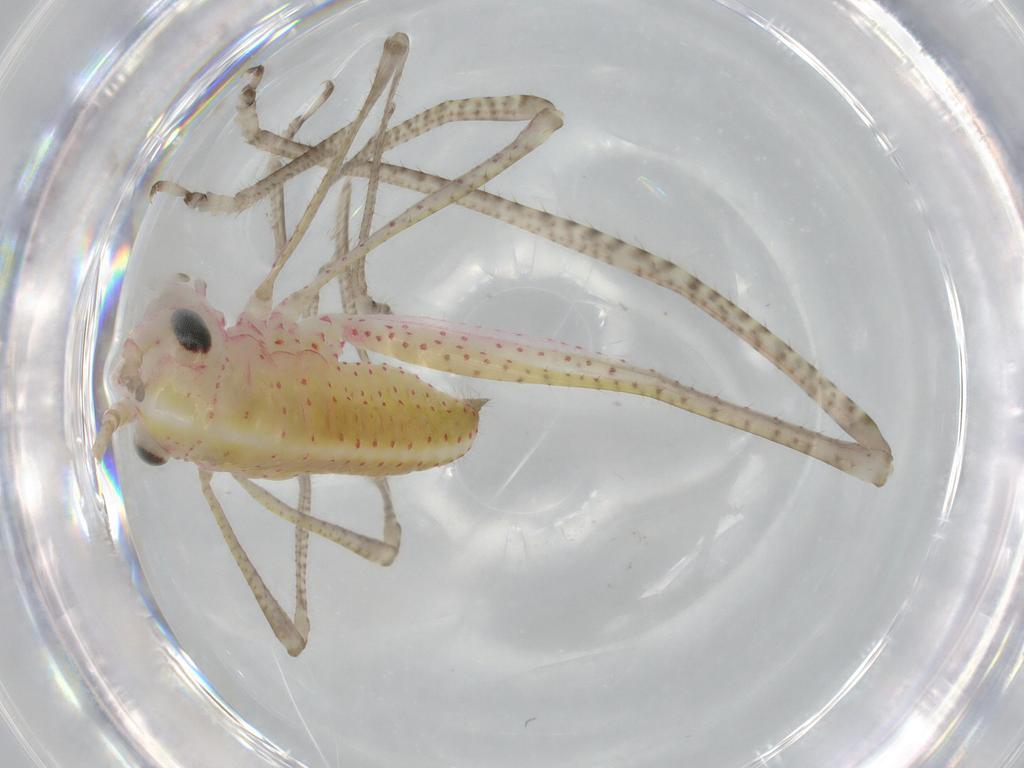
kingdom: Animalia
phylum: Arthropoda
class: Insecta
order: Orthoptera
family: Tettigoniidae
